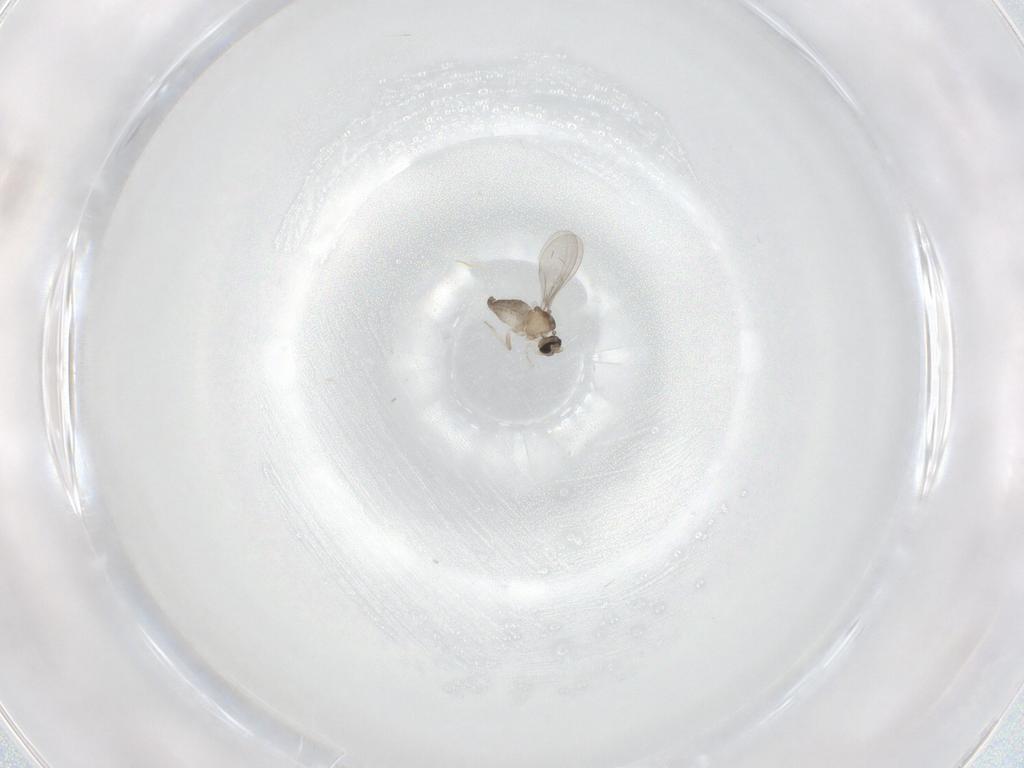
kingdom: Animalia
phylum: Arthropoda
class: Insecta
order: Diptera
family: Cecidomyiidae
